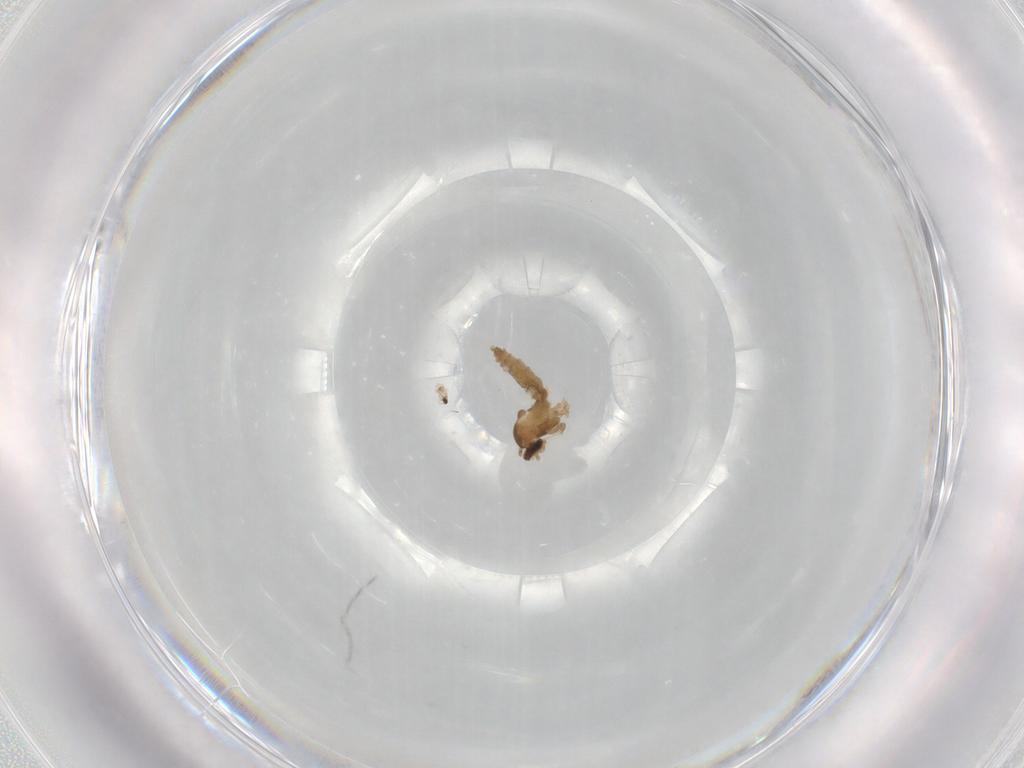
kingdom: Animalia
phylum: Arthropoda
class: Insecta
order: Diptera
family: Cecidomyiidae
